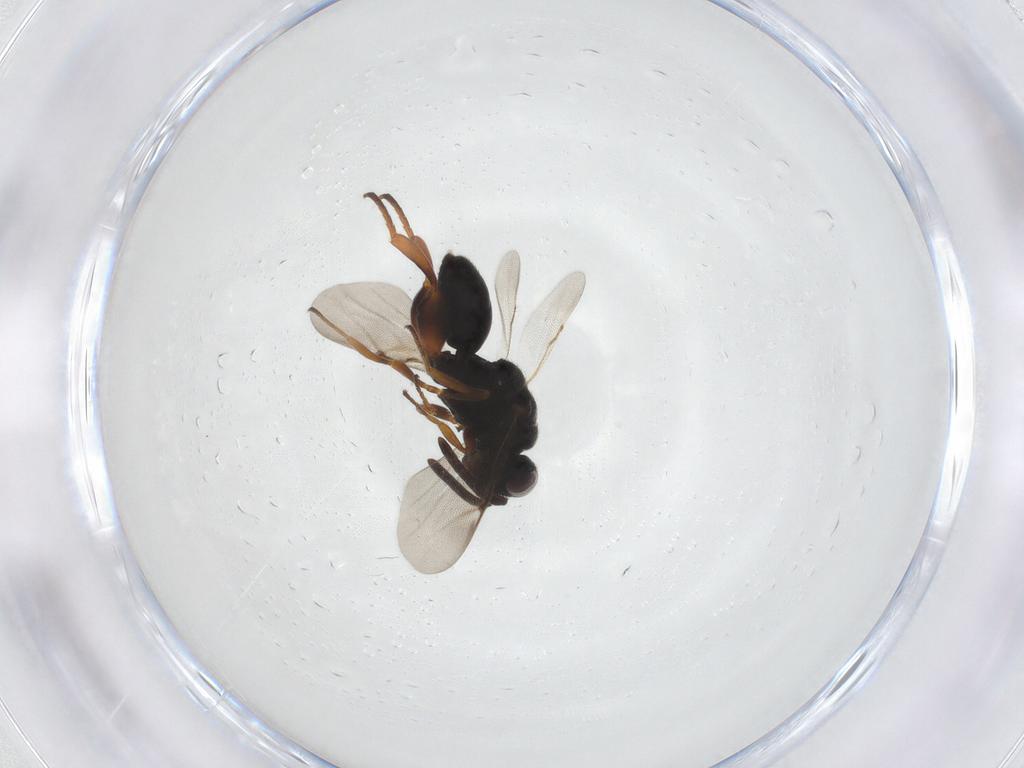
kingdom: Animalia
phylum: Arthropoda
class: Insecta
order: Hymenoptera
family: Chalcididae
